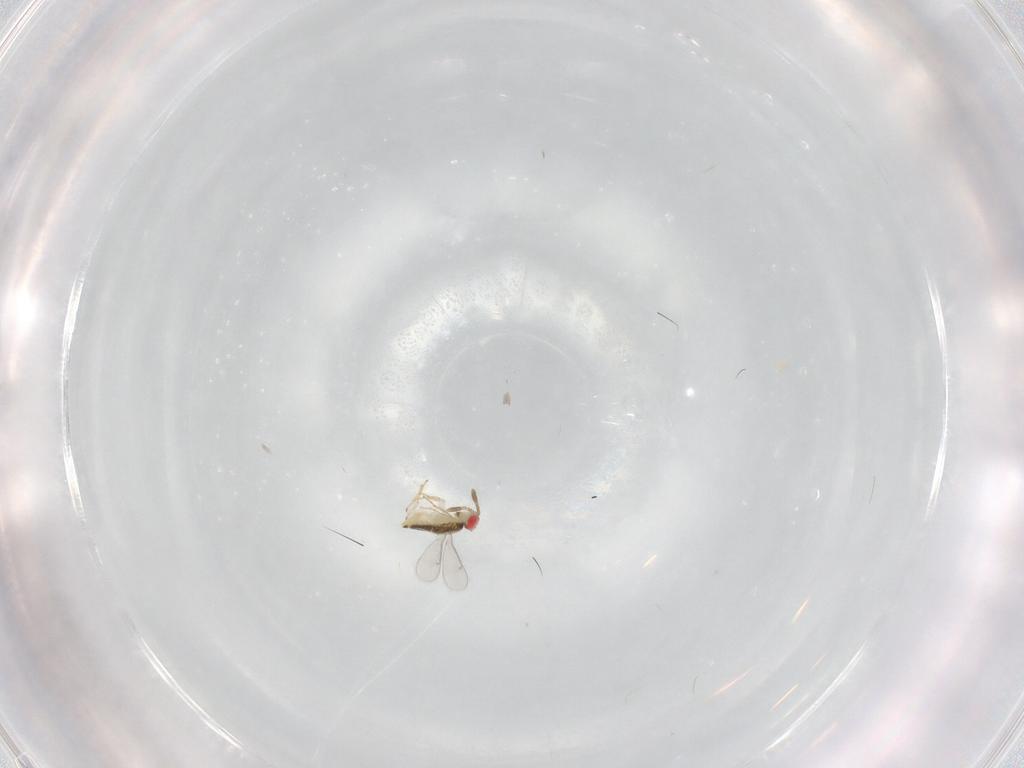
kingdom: Animalia
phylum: Arthropoda
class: Insecta
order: Hymenoptera
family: Aphelinidae
